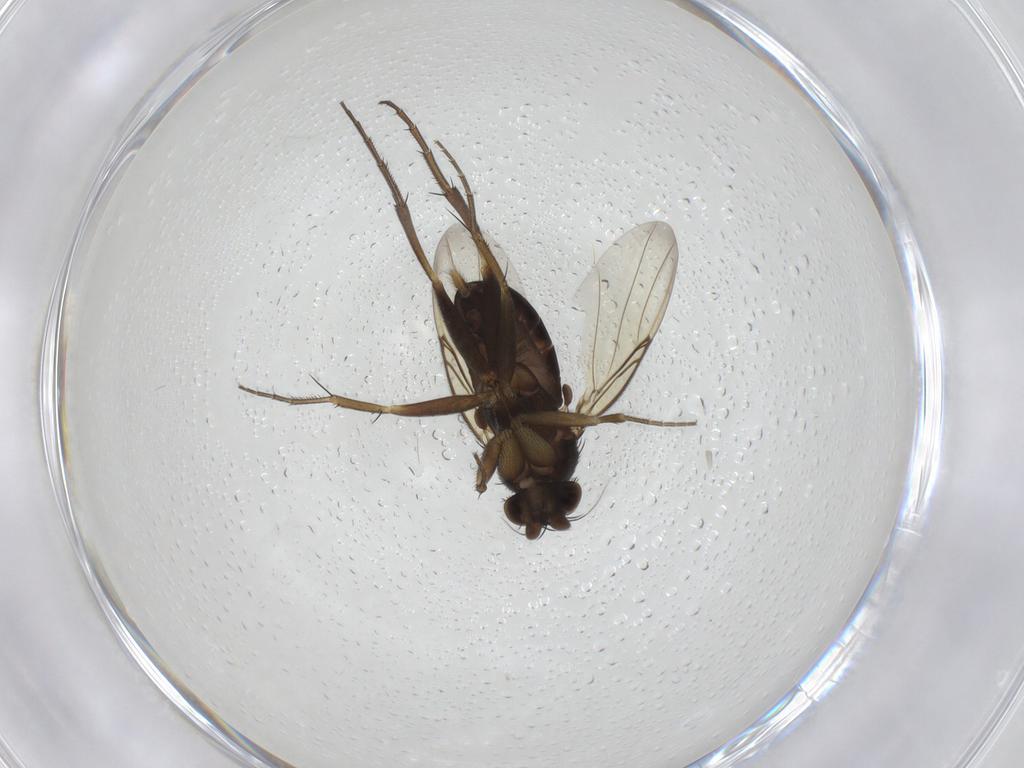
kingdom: Animalia
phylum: Arthropoda
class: Insecta
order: Diptera
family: Phoridae
